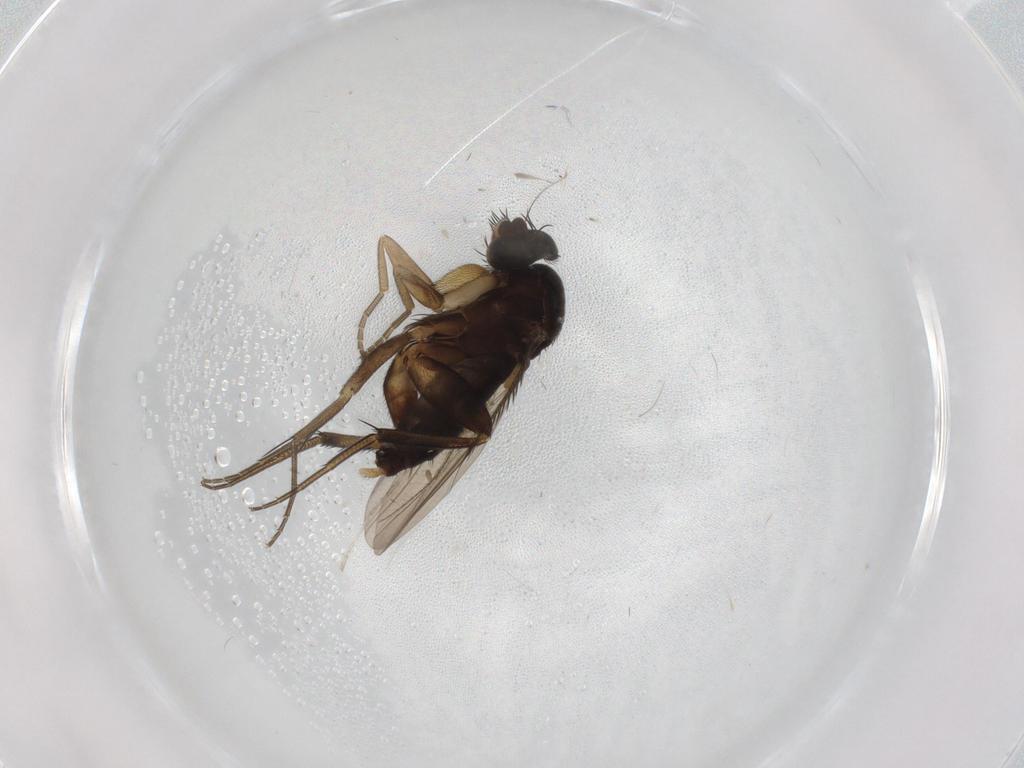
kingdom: Animalia
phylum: Arthropoda
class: Insecta
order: Diptera
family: Phoridae
